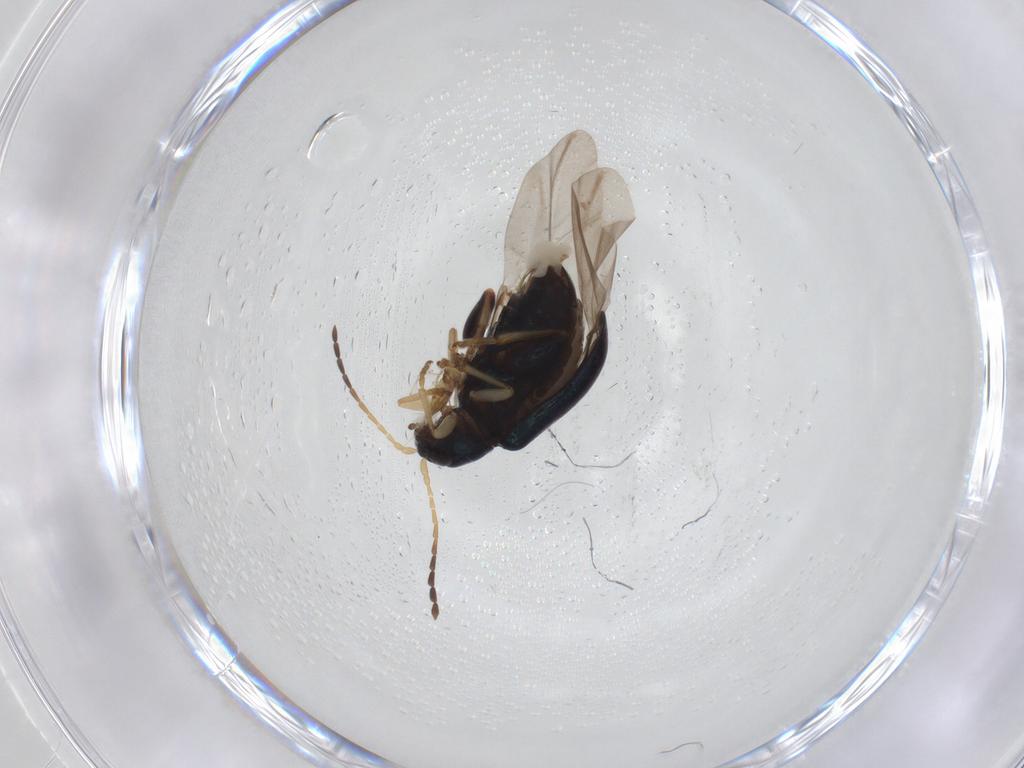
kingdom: Animalia
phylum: Arthropoda
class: Insecta
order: Coleoptera
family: Chrysomelidae
